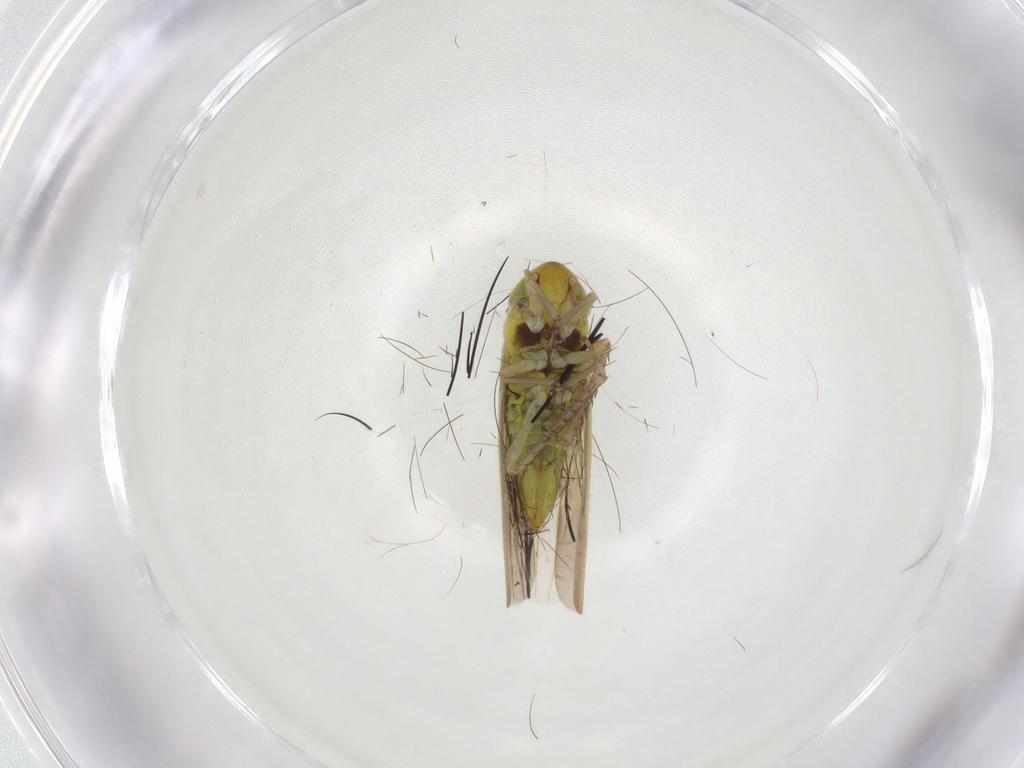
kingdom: Animalia
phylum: Arthropoda
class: Insecta
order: Hemiptera
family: Cicadellidae
